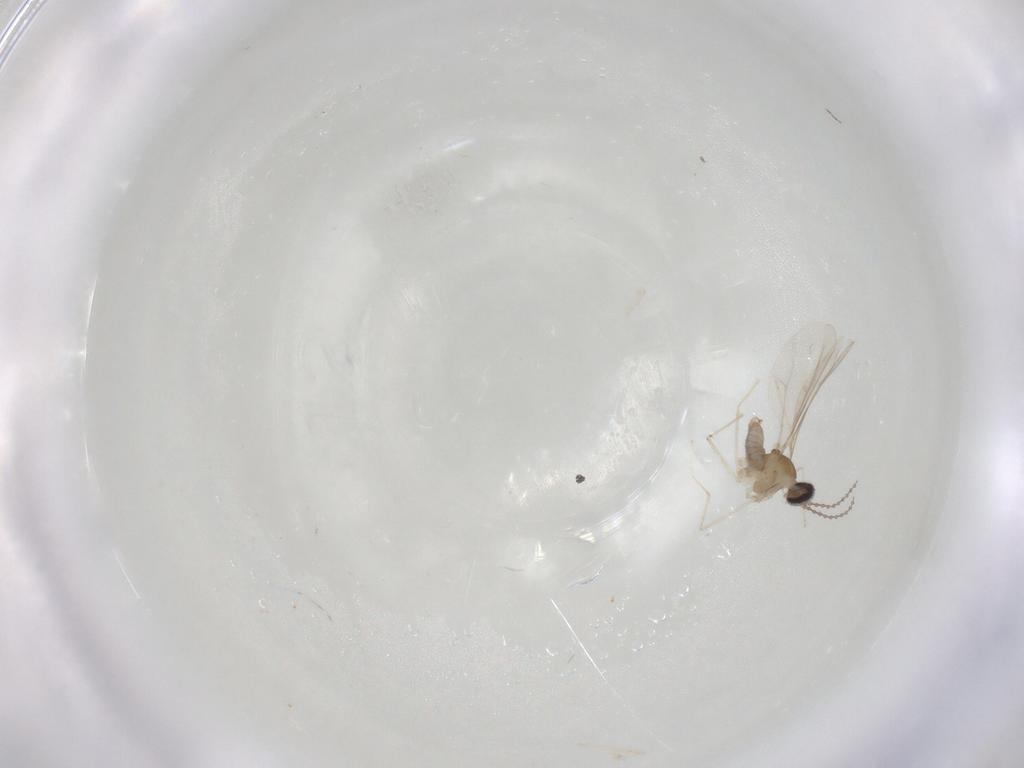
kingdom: Animalia
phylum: Arthropoda
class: Insecta
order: Diptera
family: Cecidomyiidae
